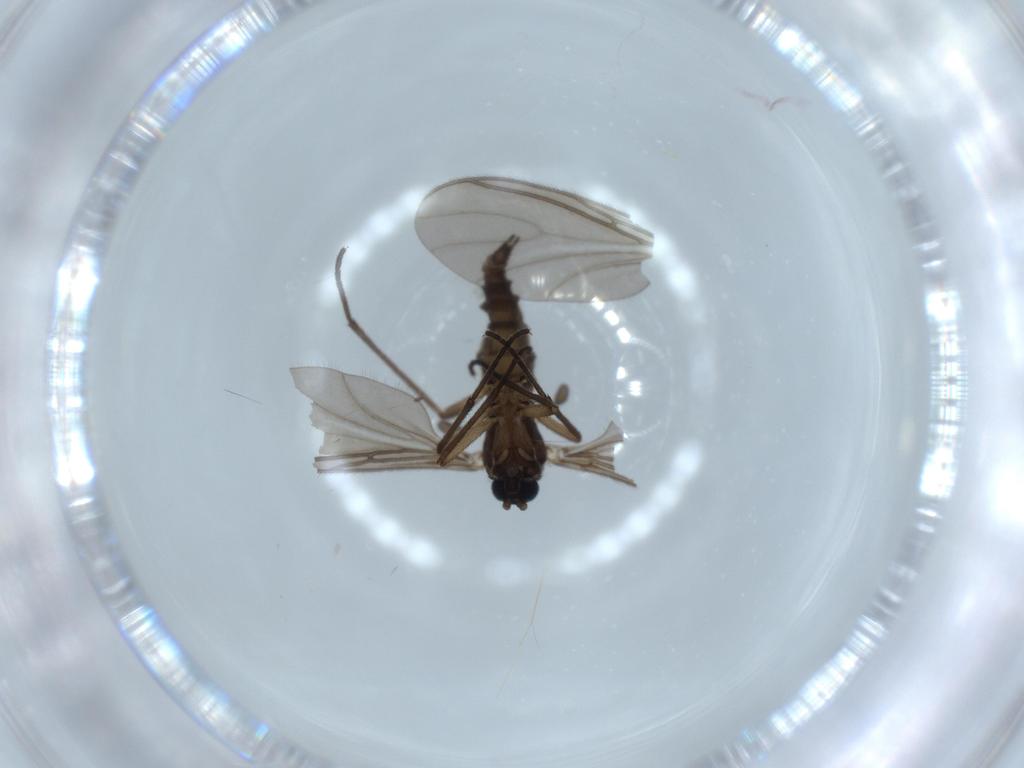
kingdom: Animalia
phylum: Arthropoda
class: Insecta
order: Diptera
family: Sciaridae
